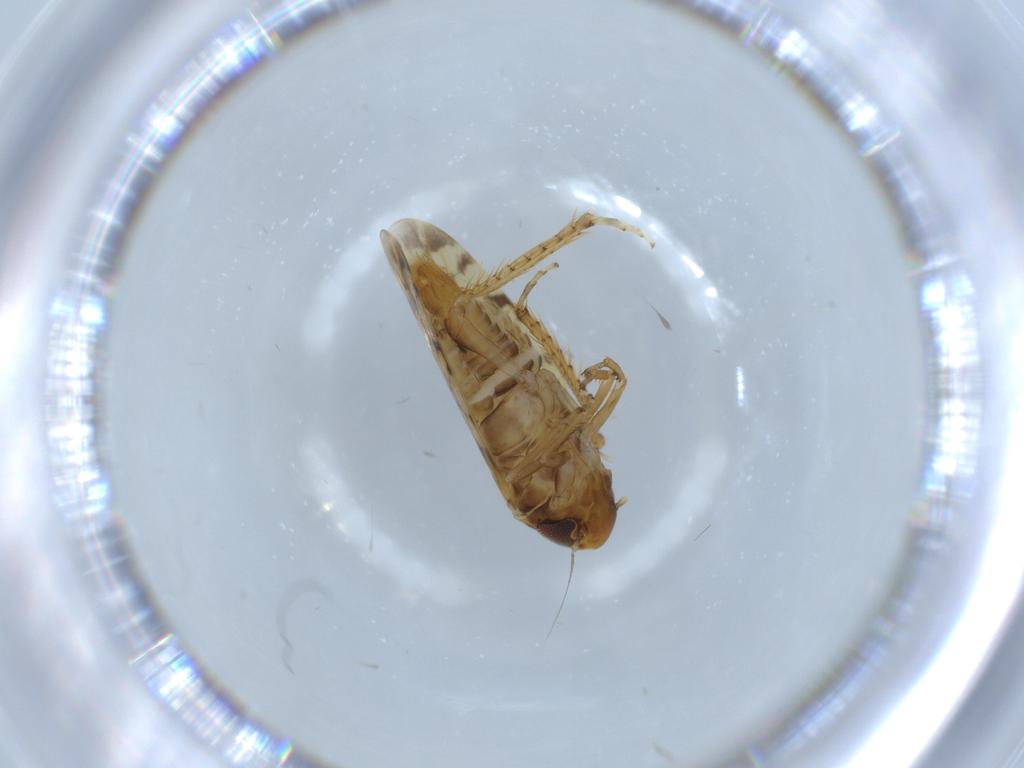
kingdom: Animalia
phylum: Arthropoda
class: Insecta
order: Hemiptera
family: Cicadellidae
